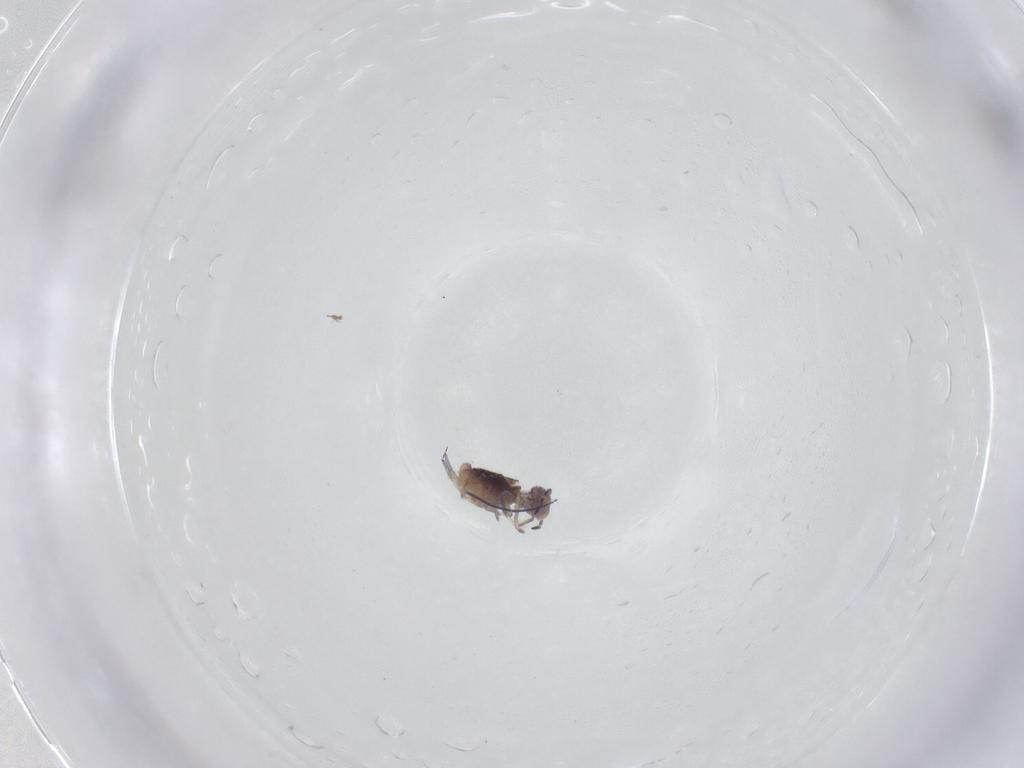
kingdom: Animalia
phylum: Arthropoda
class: Collembola
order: Symphypleona
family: Sminthuridae
